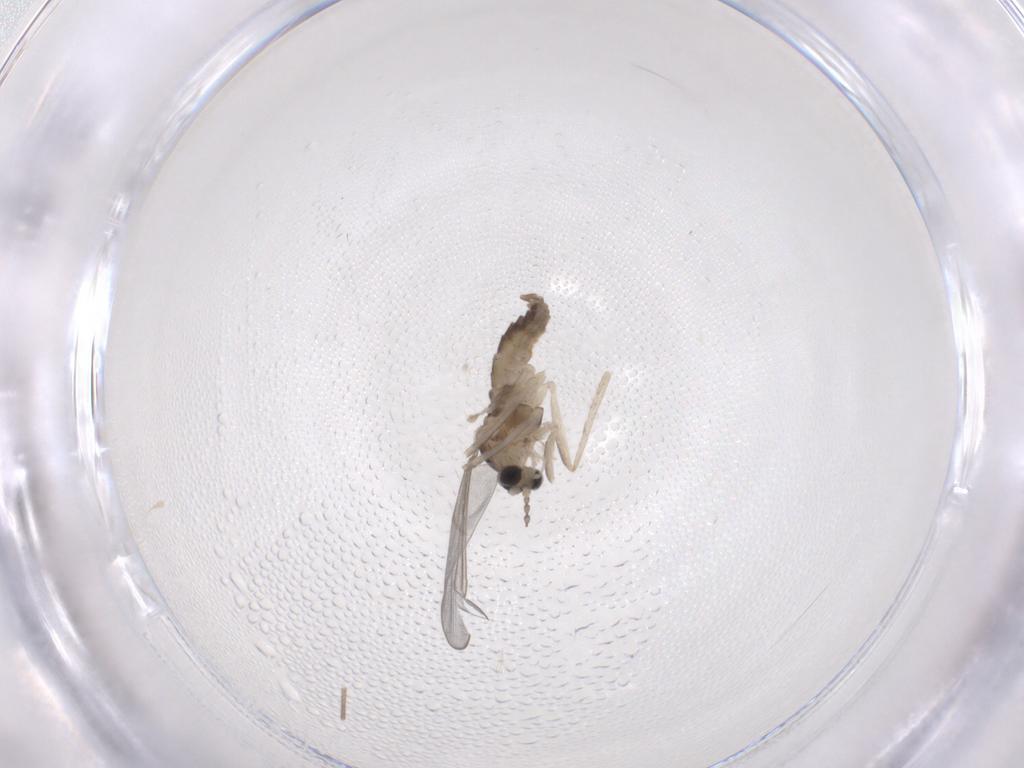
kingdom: Animalia
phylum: Arthropoda
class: Insecta
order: Diptera
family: Cecidomyiidae
